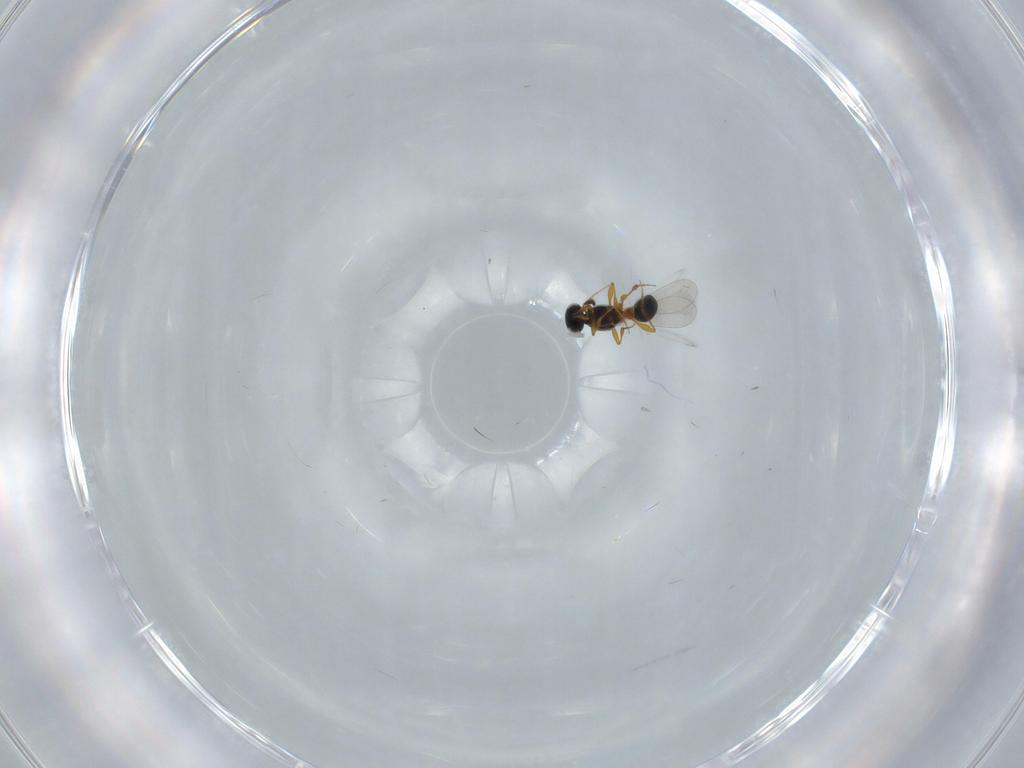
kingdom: Animalia
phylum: Arthropoda
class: Insecta
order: Hymenoptera
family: Platygastridae
